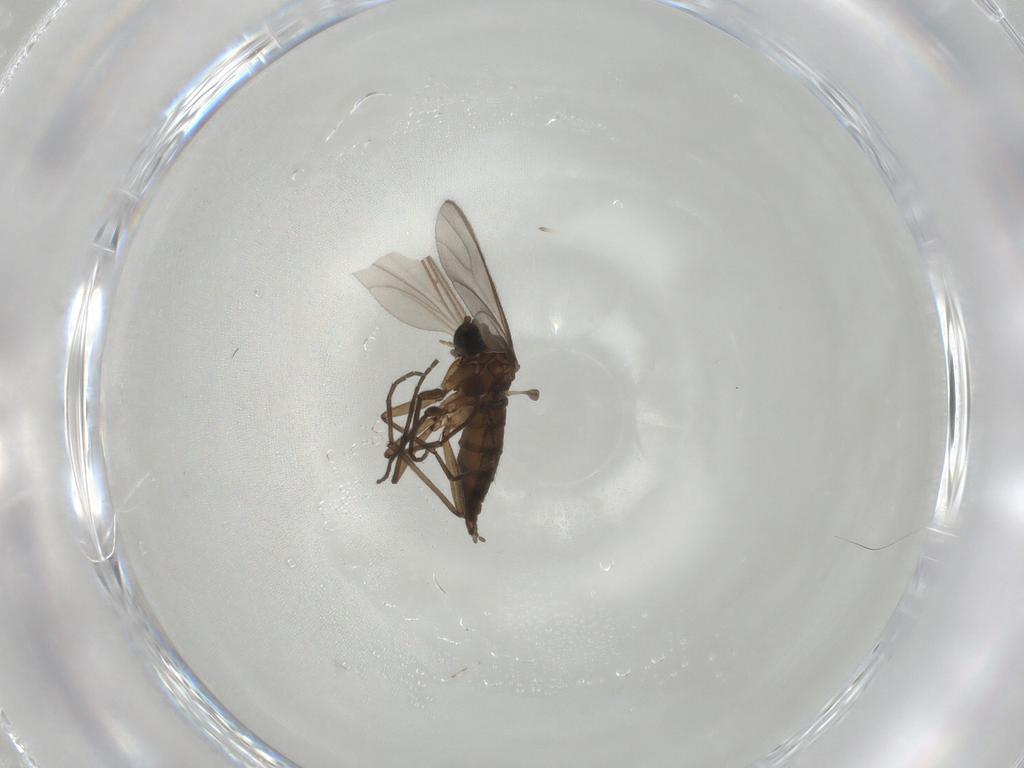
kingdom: Animalia
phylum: Arthropoda
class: Insecta
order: Diptera
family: Sciaridae
